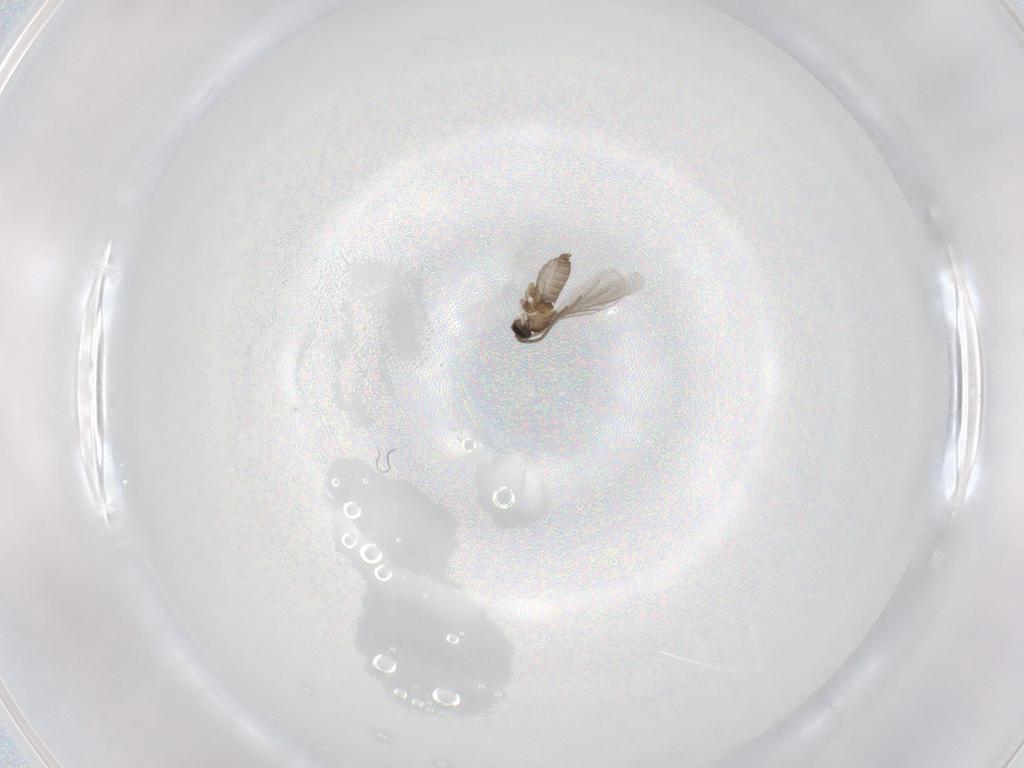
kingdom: Animalia
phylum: Arthropoda
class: Insecta
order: Diptera
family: Cecidomyiidae
